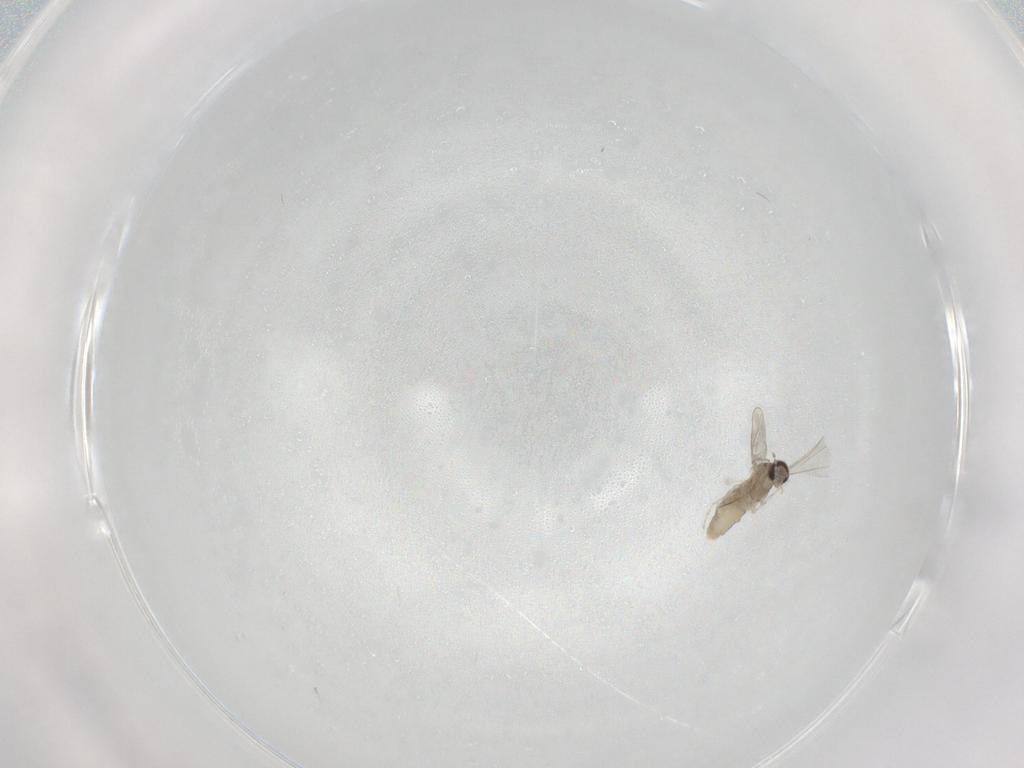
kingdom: Animalia
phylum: Arthropoda
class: Insecta
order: Diptera
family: Cecidomyiidae
